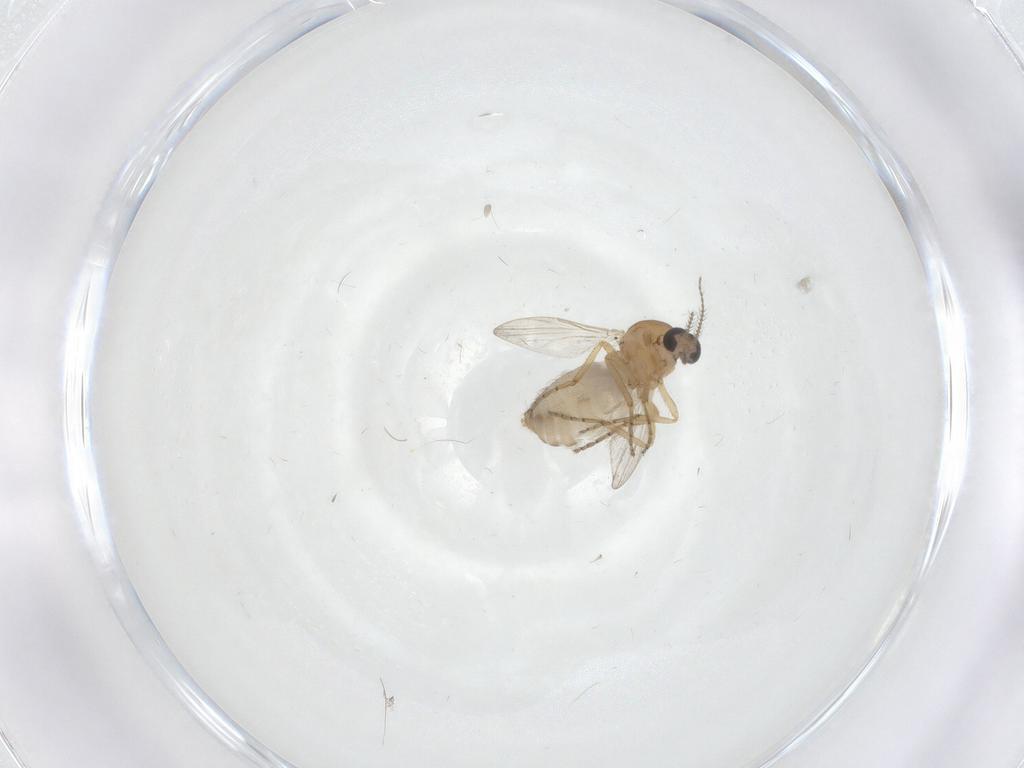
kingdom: Animalia
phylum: Arthropoda
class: Insecta
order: Diptera
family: Ceratopogonidae
